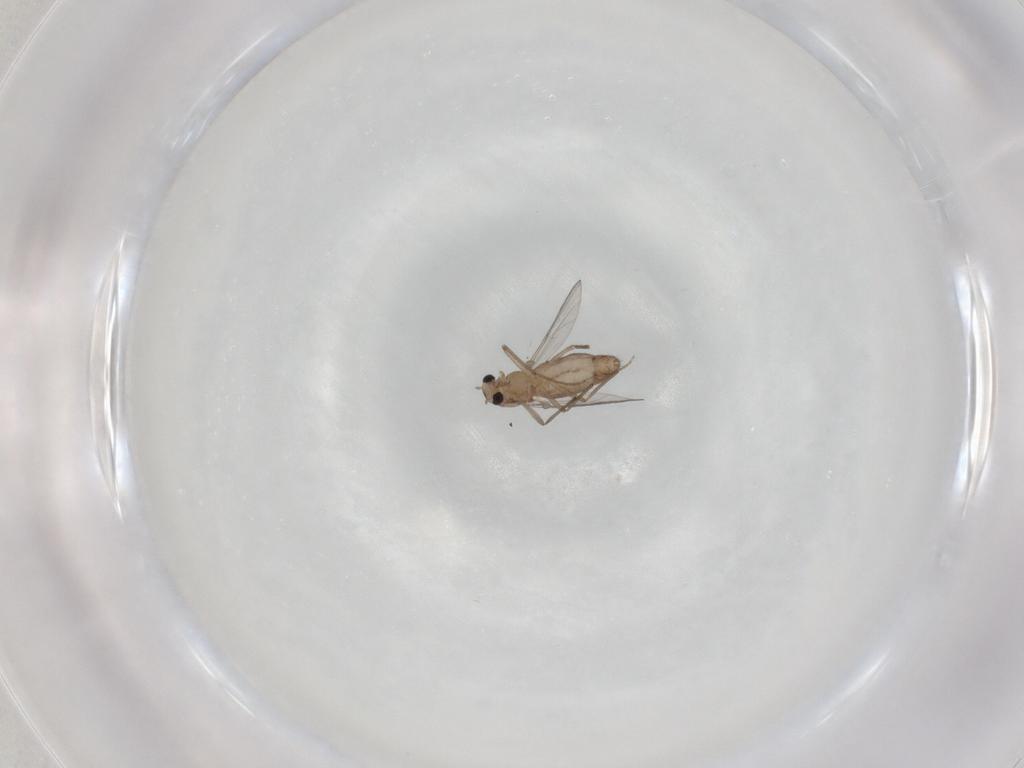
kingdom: Animalia
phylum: Arthropoda
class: Insecta
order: Diptera
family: Chironomidae
